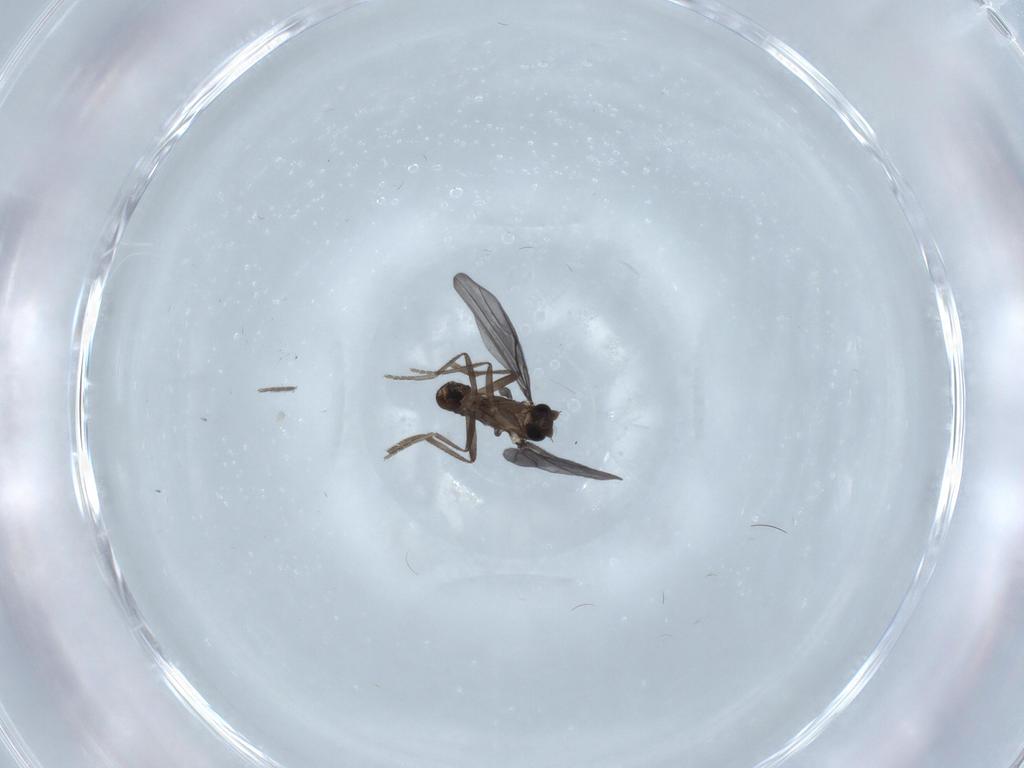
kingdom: Animalia
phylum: Arthropoda
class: Insecta
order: Diptera
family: Phoridae
